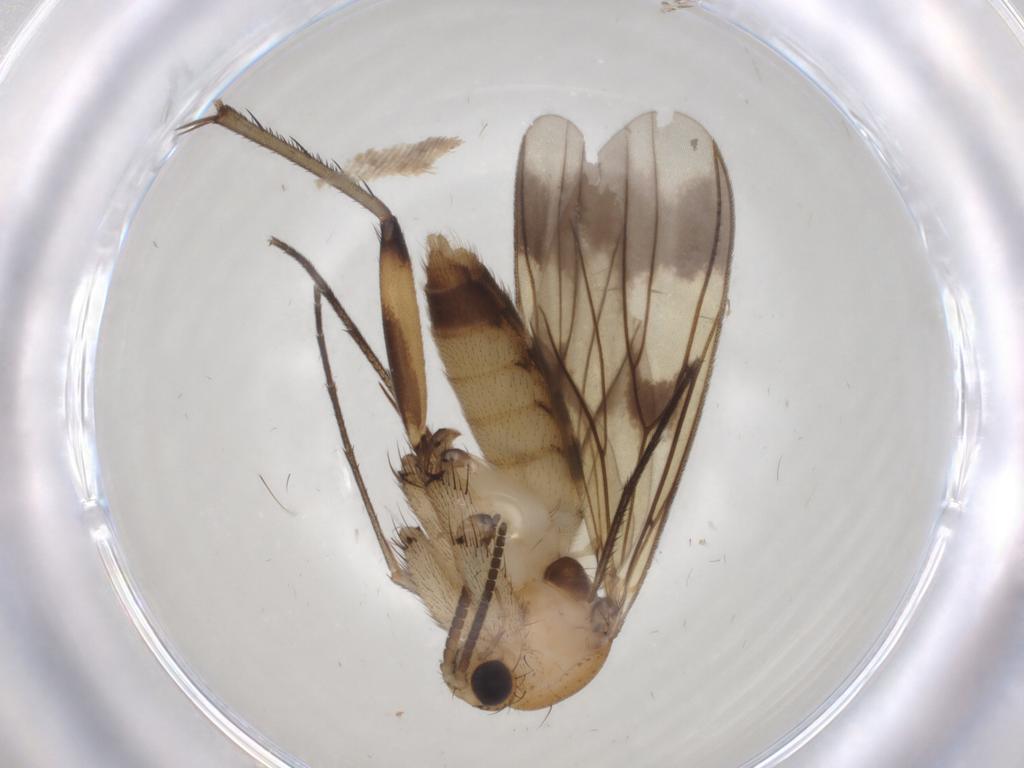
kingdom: Animalia
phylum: Arthropoda
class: Insecta
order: Diptera
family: Mycetophilidae
